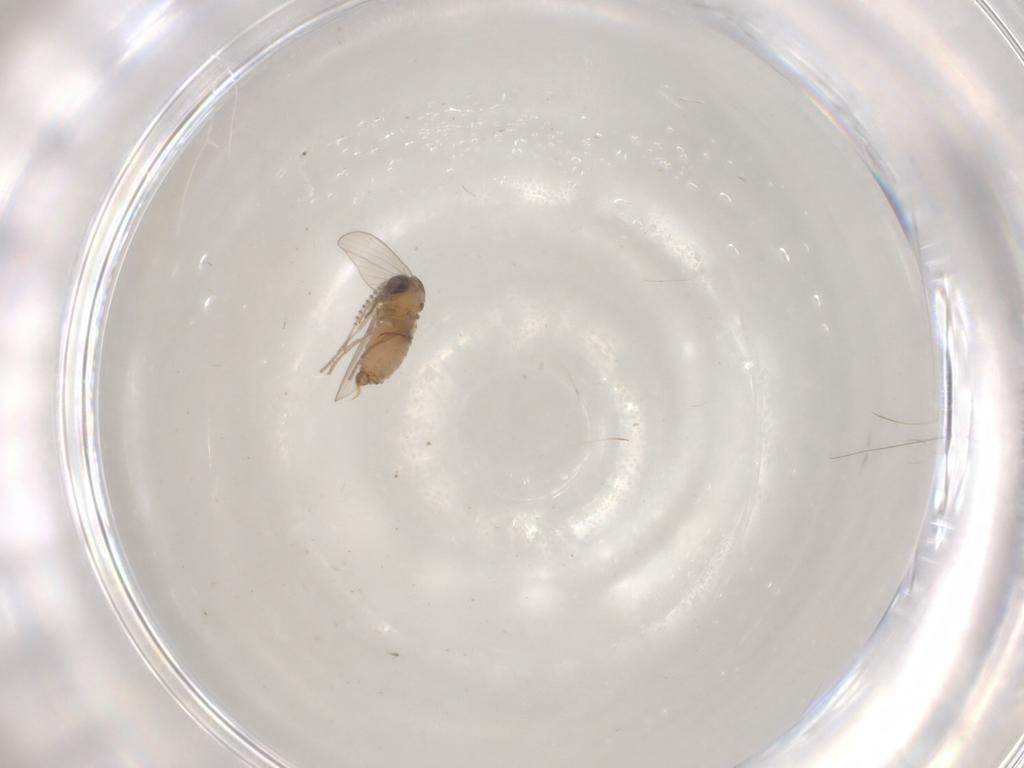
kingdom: Animalia
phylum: Arthropoda
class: Insecta
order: Diptera
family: Psychodidae
